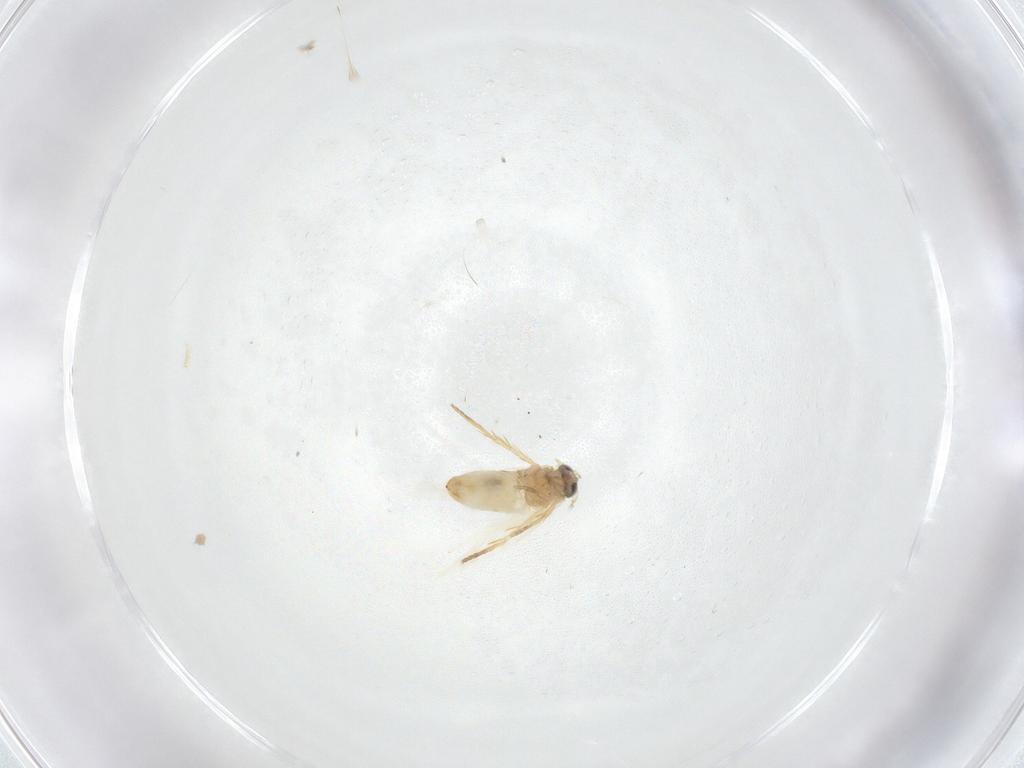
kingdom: Animalia
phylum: Arthropoda
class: Insecta
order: Lepidoptera
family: Crambidae
